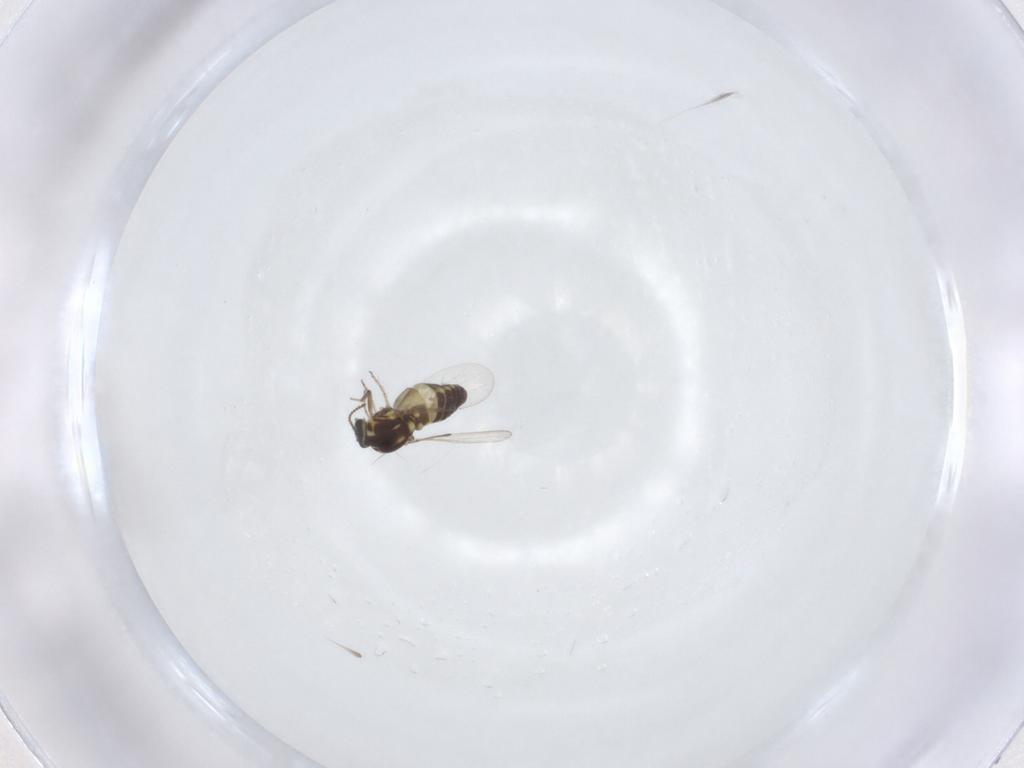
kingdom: Animalia
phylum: Arthropoda
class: Insecta
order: Diptera
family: Ceratopogonidae
